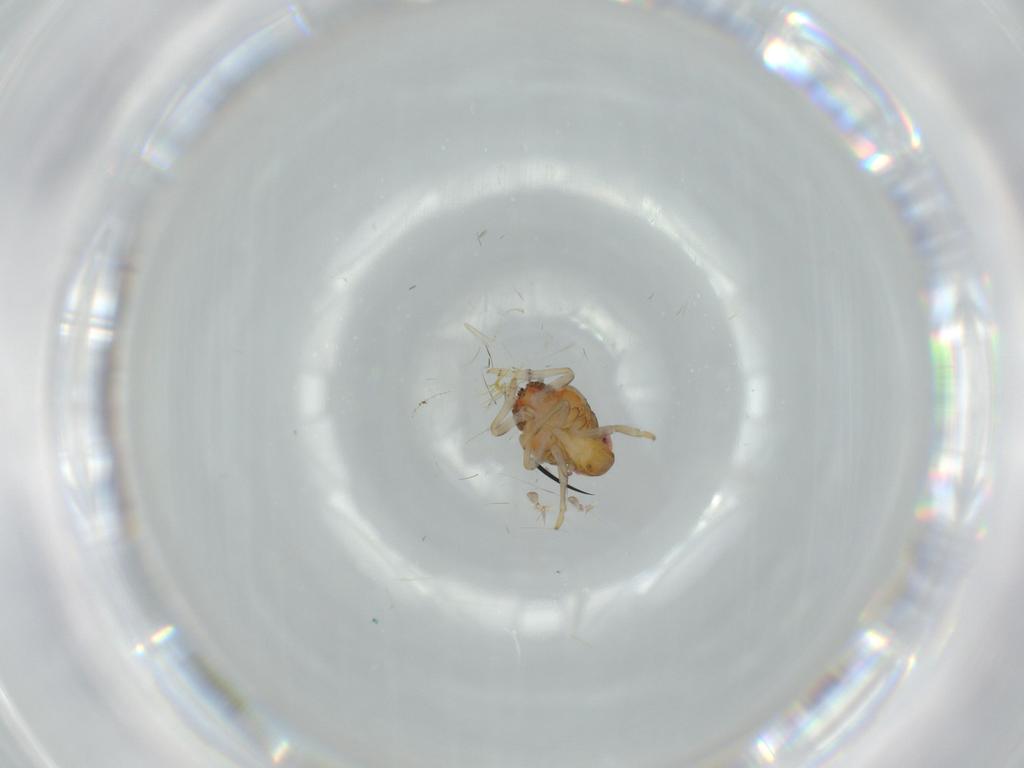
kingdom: Animalia
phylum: Arthropoda
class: Insecta
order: Hemiptera
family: Issidae
